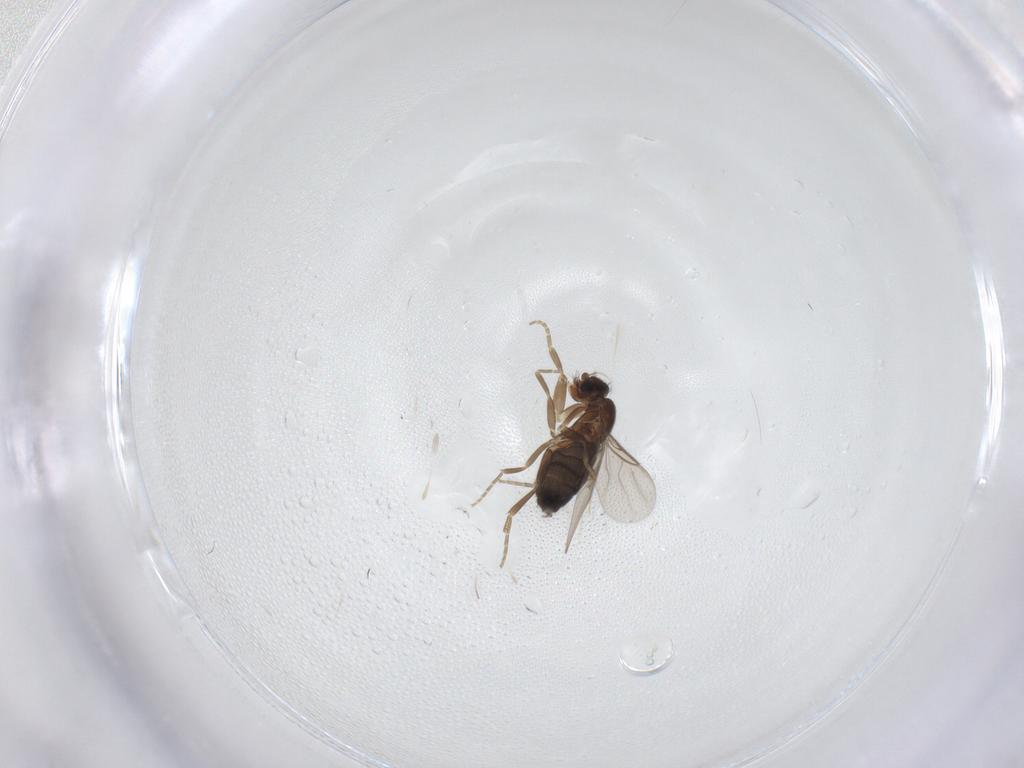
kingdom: Animalia
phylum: Arthropoda
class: Insecta
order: Diptera
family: Phoridae
